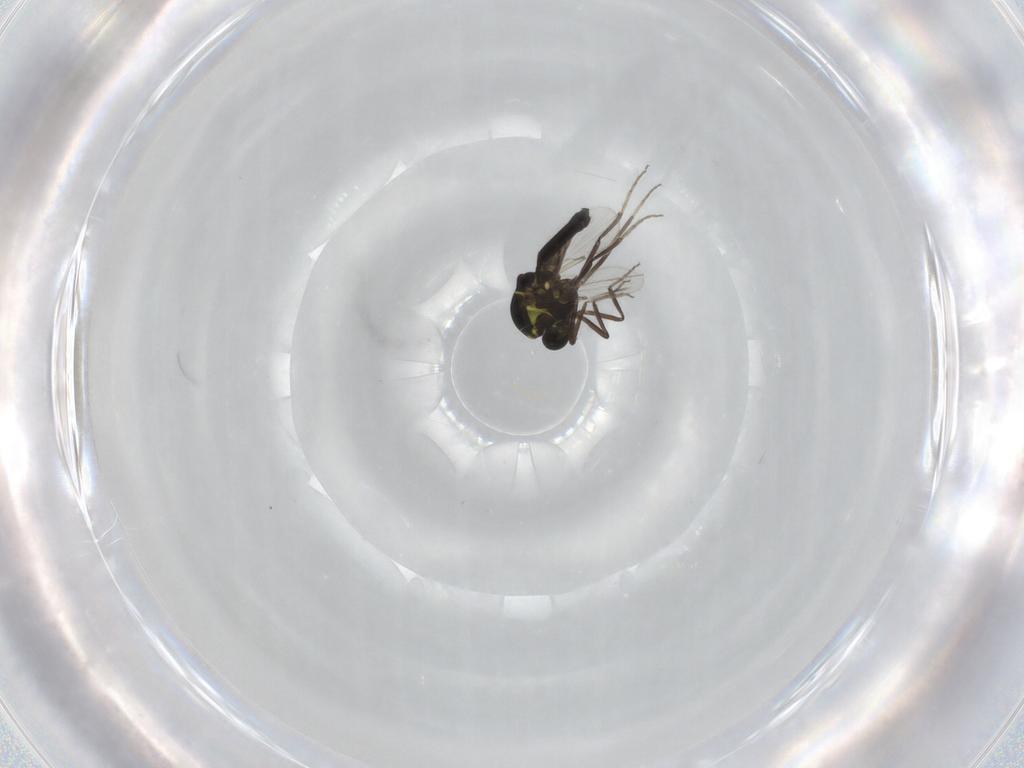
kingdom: Animalia
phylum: Arthropoda
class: Insecta
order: Diptera
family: Ceratopogonidae
